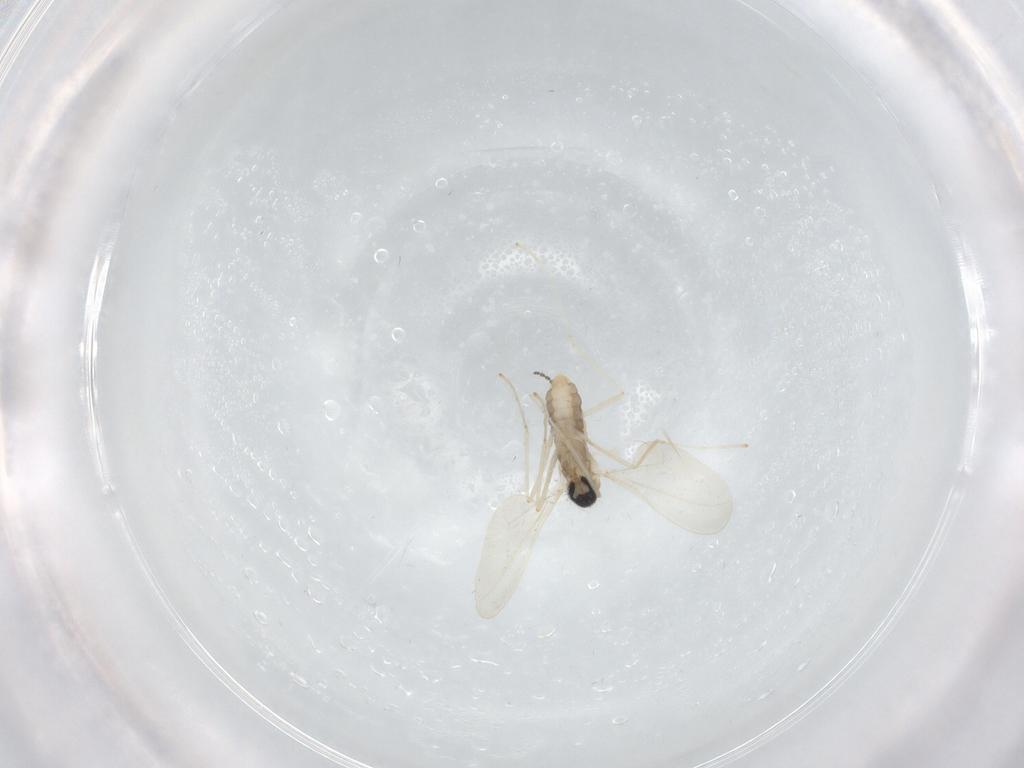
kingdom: Animalia
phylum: Arthropoda
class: Insecta
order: Diptera
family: Cecidomyiidae
